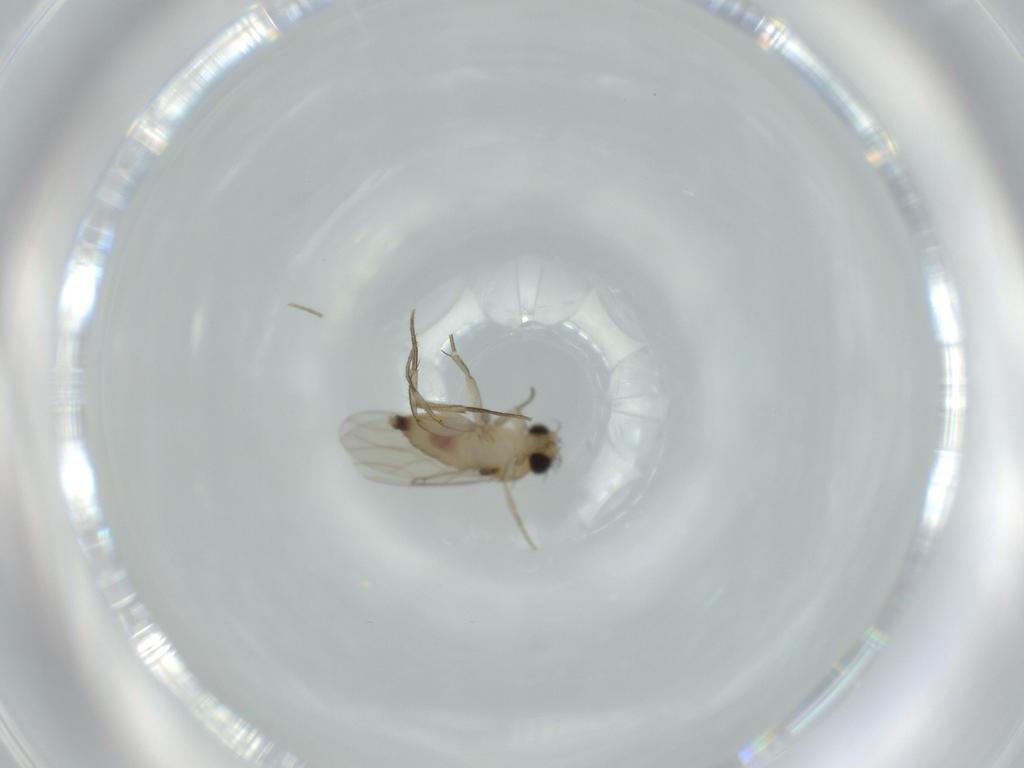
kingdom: Animalia
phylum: Arthropoda
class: Insecta
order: Diptera
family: Phoridae
